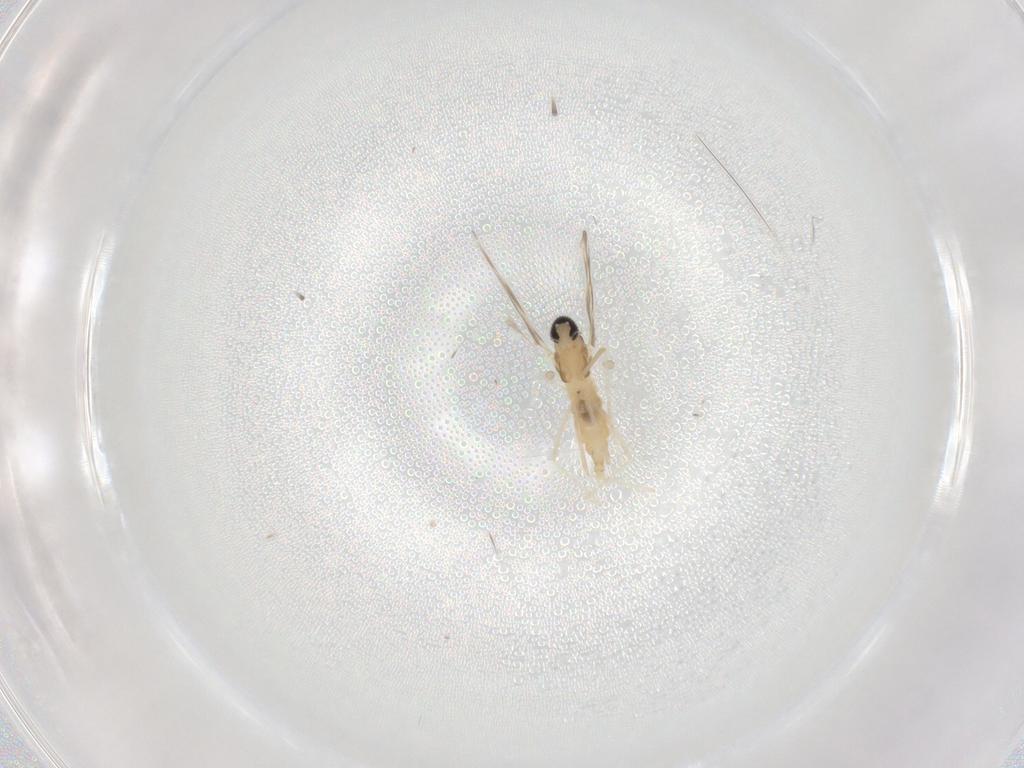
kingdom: Animalia
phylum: Arthropoda
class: Insecta
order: Diptera
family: Cecidomyiidae
